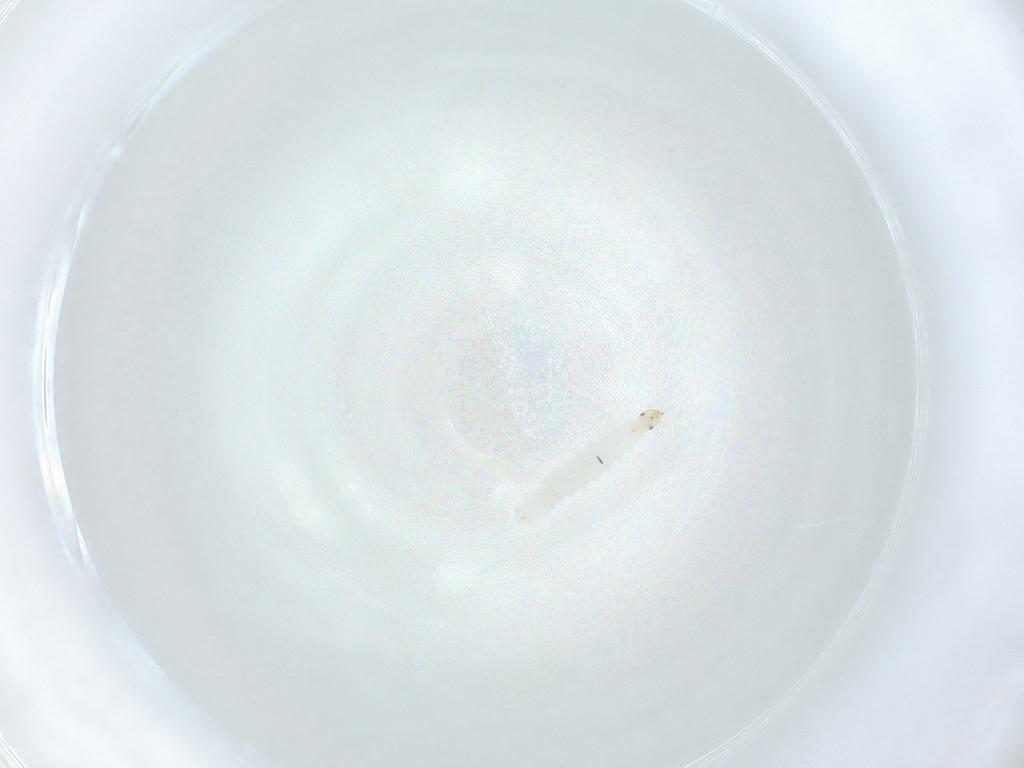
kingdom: Animalia
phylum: Arthropoda
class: Insecta
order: Diptera
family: Stratiomyidae
